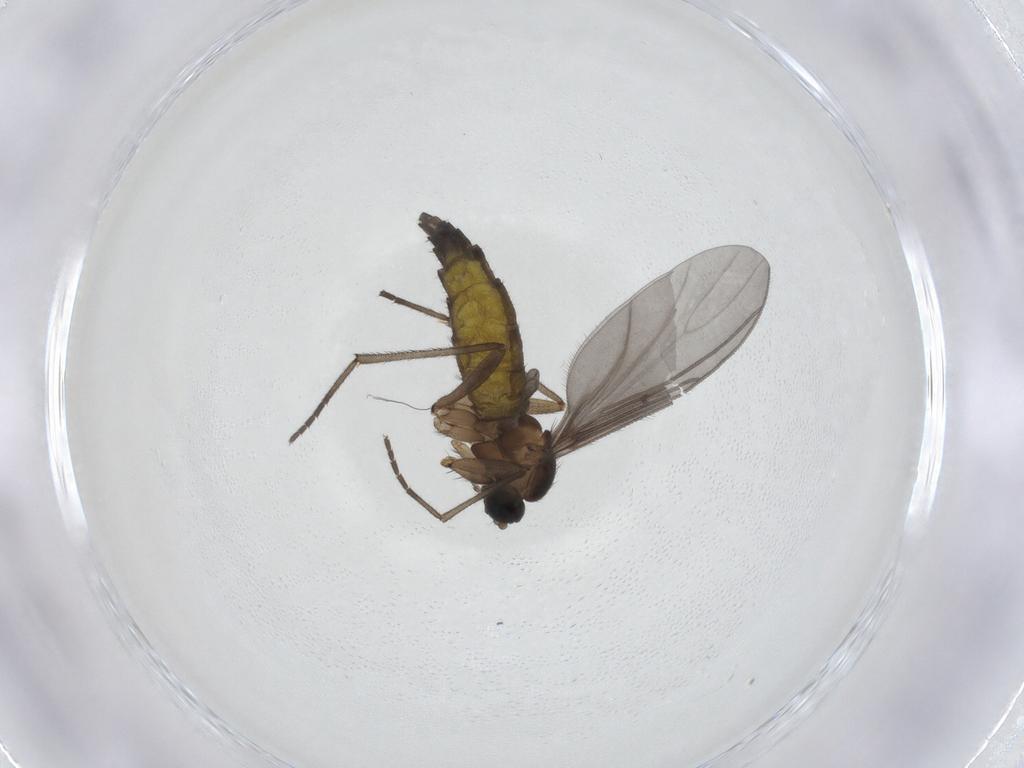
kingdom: Animalia
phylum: Arthropoda
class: Insecta
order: Diptera
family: Sciaridae
